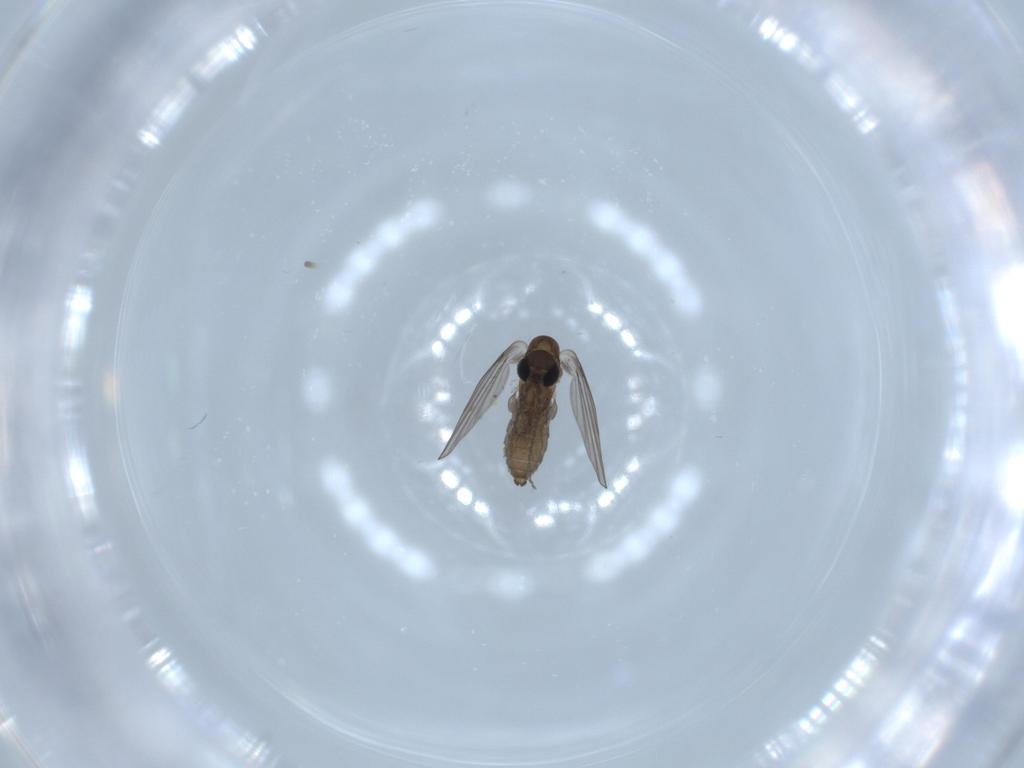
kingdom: Animalia
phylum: Arthropoda
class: Insecta
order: Diptera
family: Psychodidae
